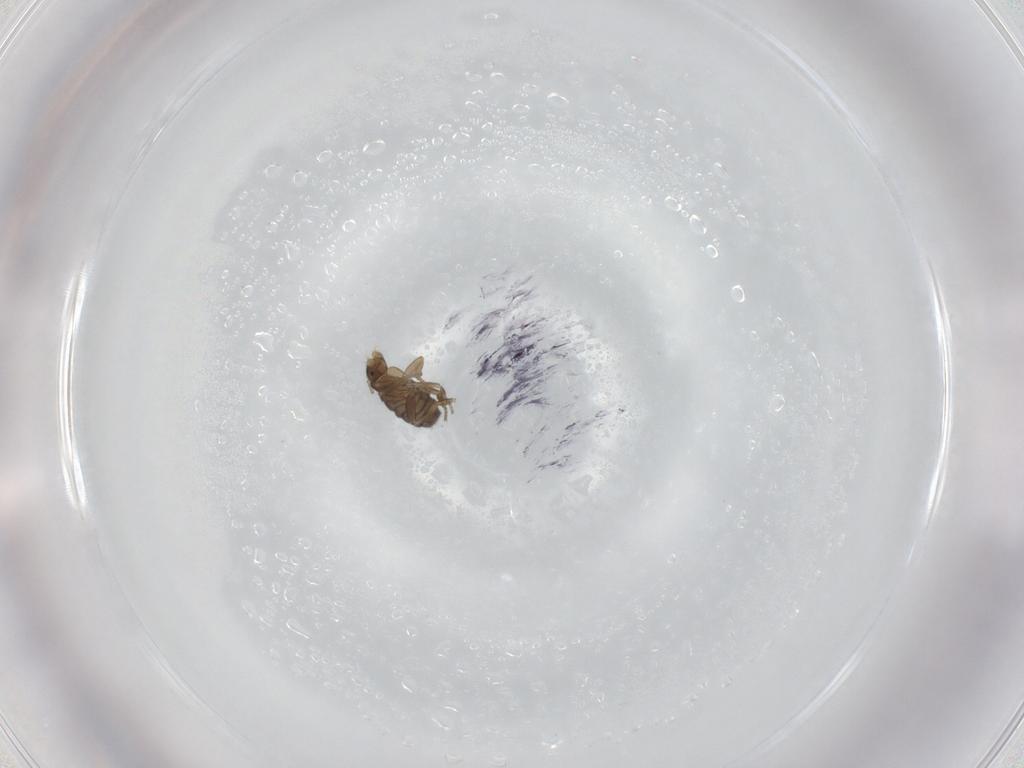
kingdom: Animalia
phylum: Arthropoda
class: Insecta
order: Diptera
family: Phoridae
